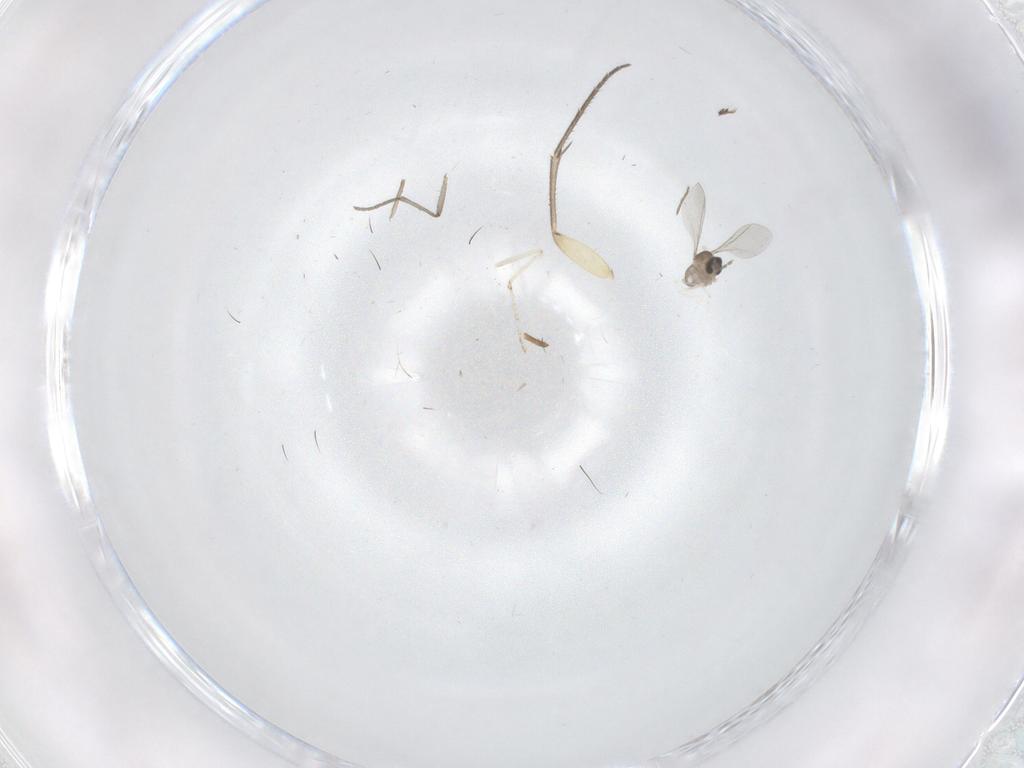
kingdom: Animalia
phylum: Arthropoda
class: Insecta
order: Diptera
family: Mycetophilidae
